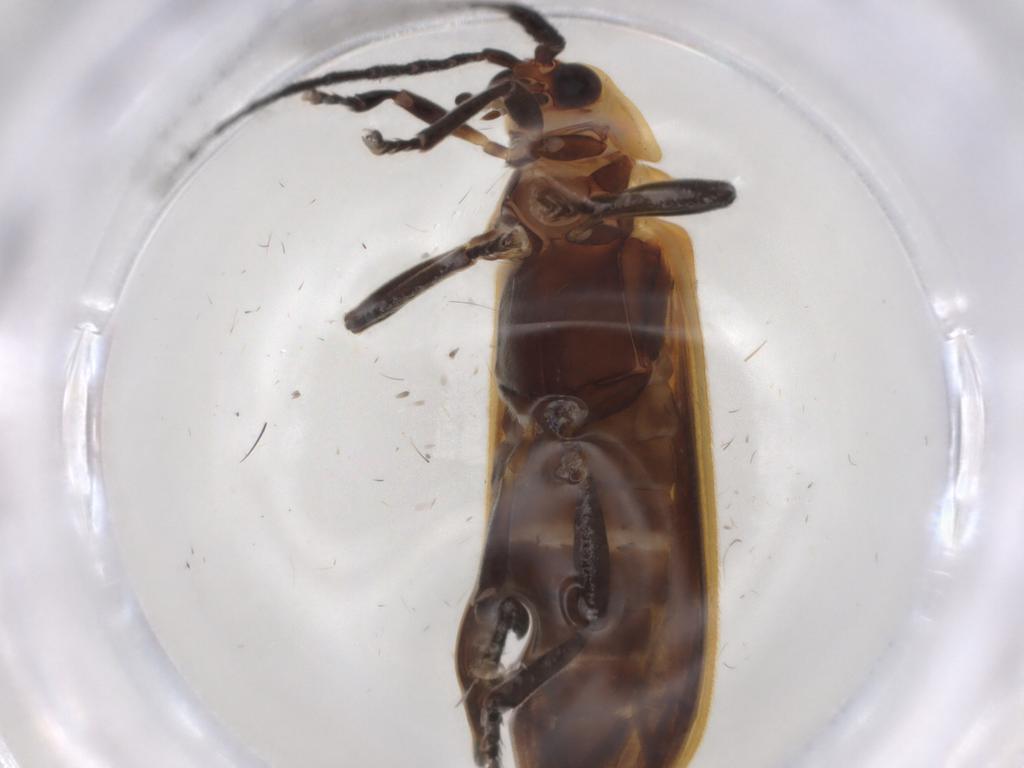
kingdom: Animalia
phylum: Arthropoda
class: Insecta
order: Coleoptera
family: Lycidae
